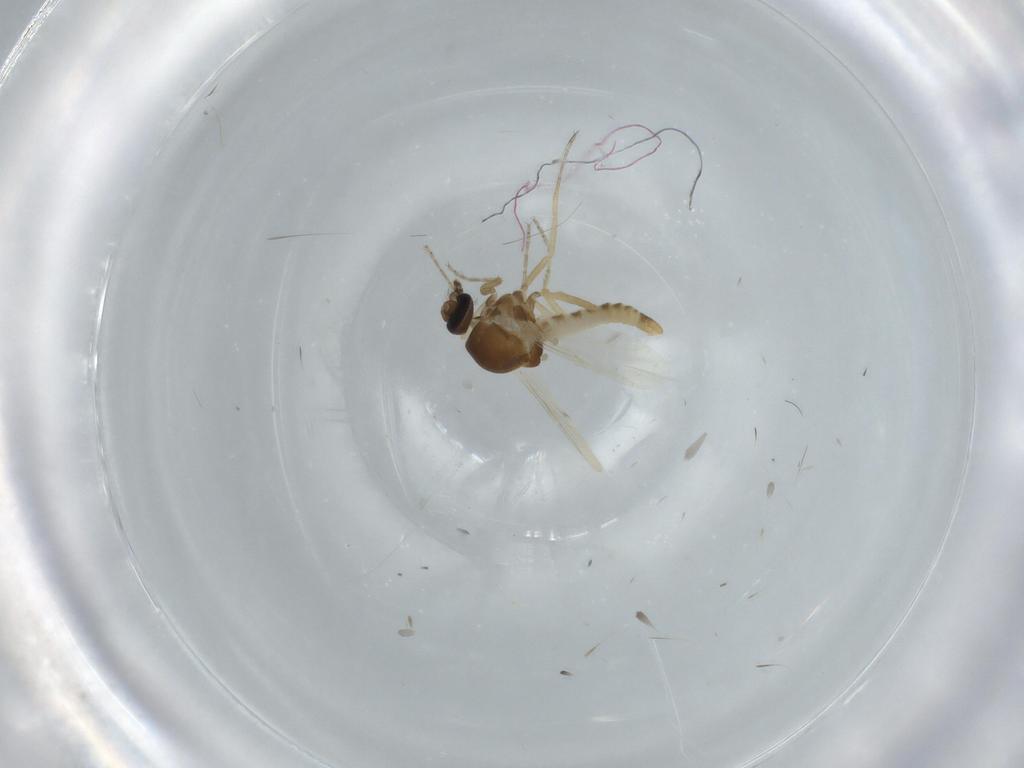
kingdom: Animalia
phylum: Arthropoda
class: Insecta
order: Diptera
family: Ceratopogonidae
